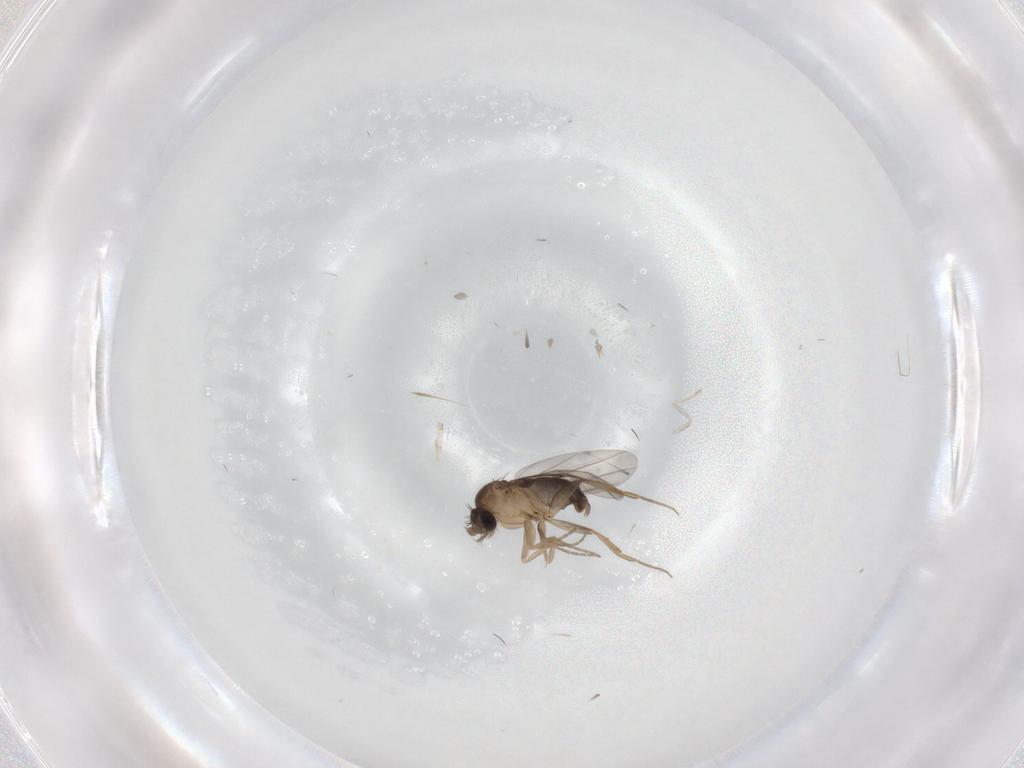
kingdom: Animalia
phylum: Arthropoda
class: Insecta
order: Diptera
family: Phoridae
